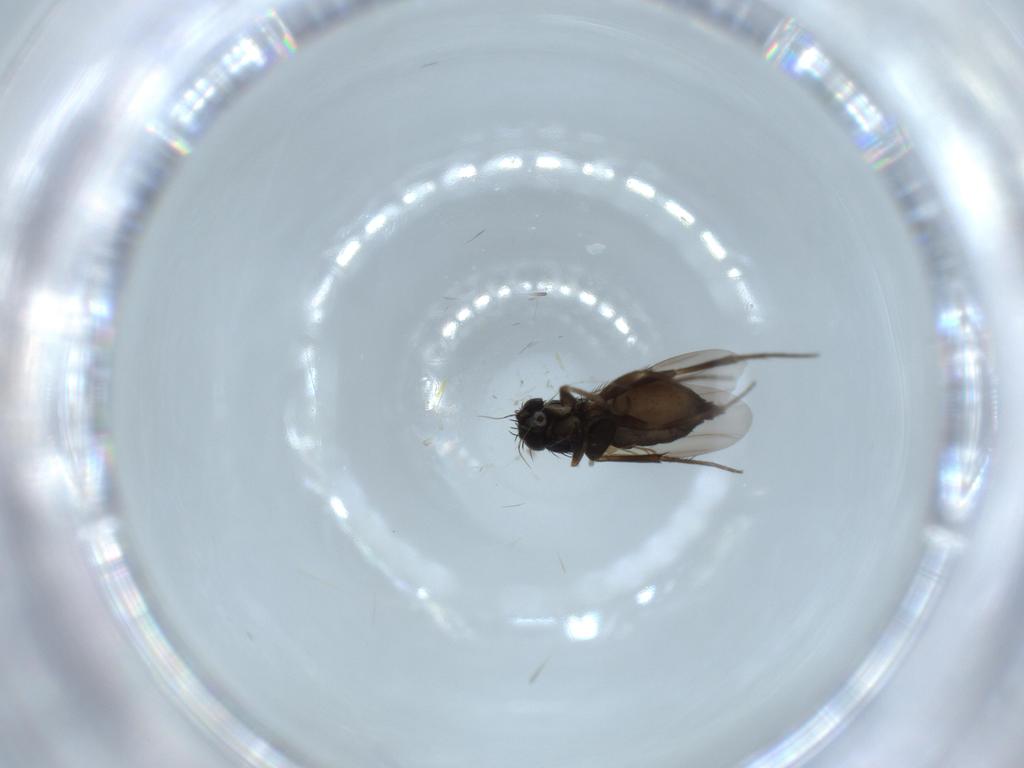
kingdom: Animalia
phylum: Arthropoda
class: Insecta
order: Diptera
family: Phoridae
